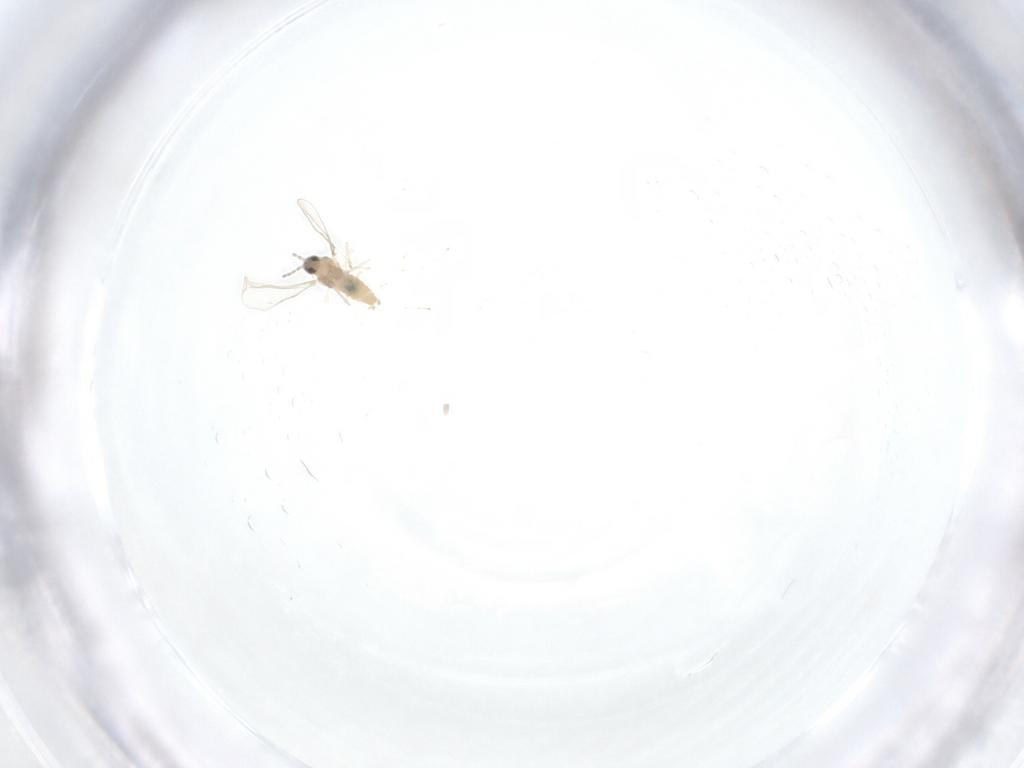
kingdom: Animalia
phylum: Arthropoda
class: Insecta
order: Diptera
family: Cecidomyiidae
